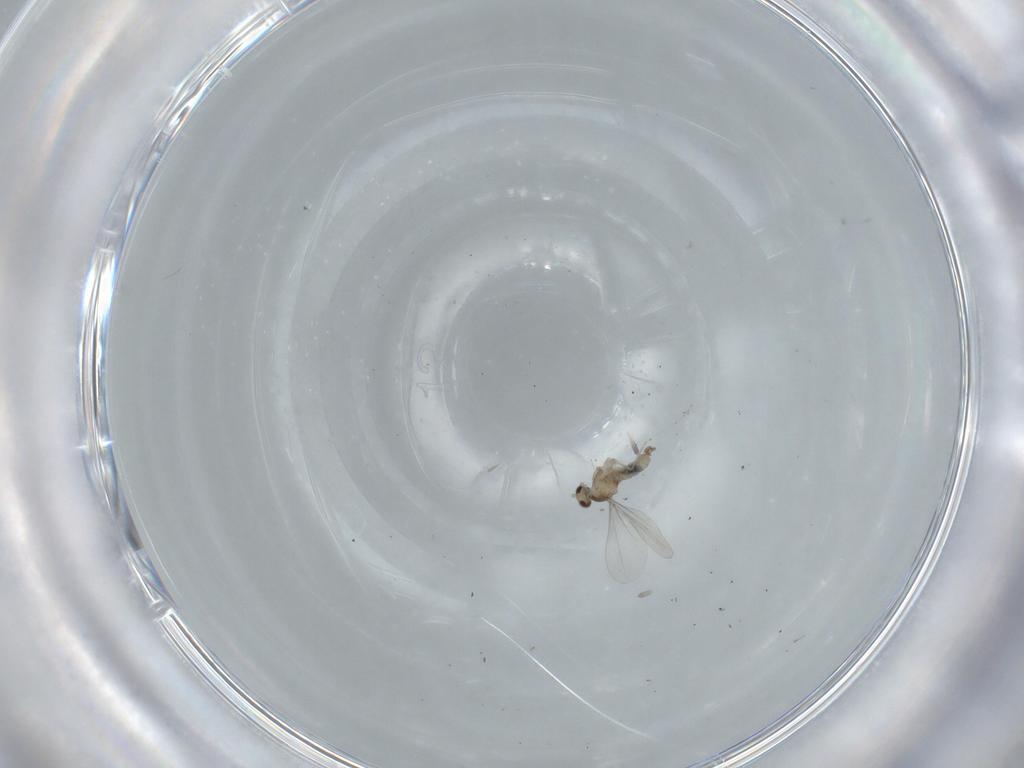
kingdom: Animalia
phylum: Arthropoda
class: Insecta
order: Diptera
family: Cecidomyiidae
